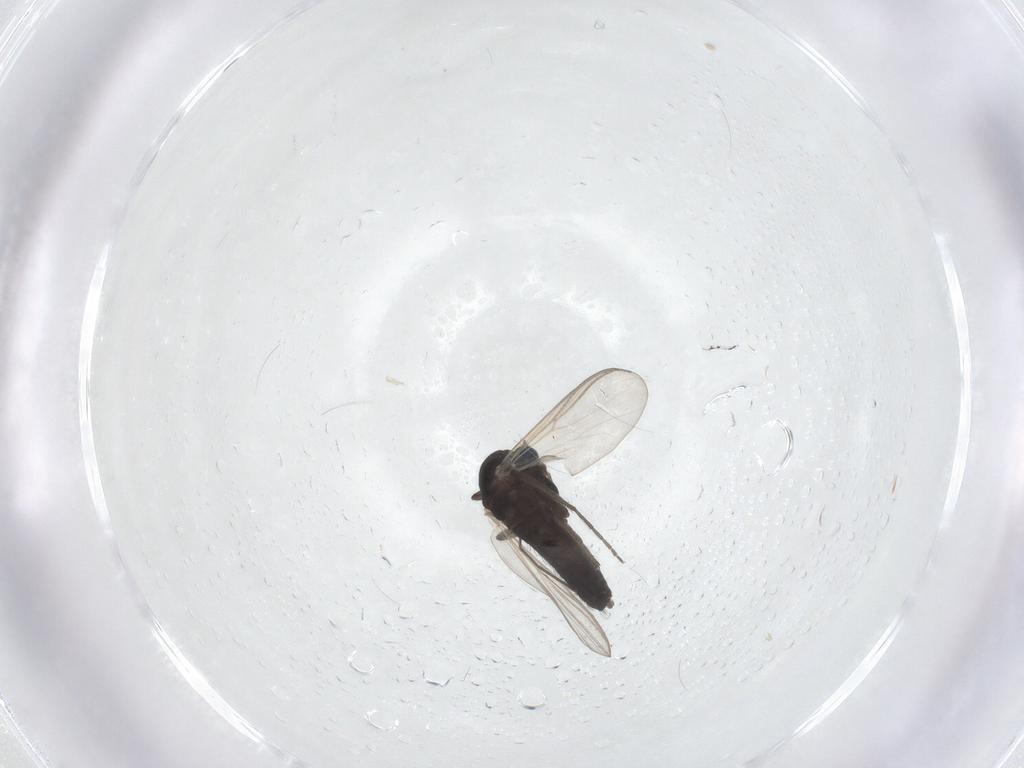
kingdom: Animalia
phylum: Arthropoda
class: Insecta
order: Diptera
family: Chironomidae
